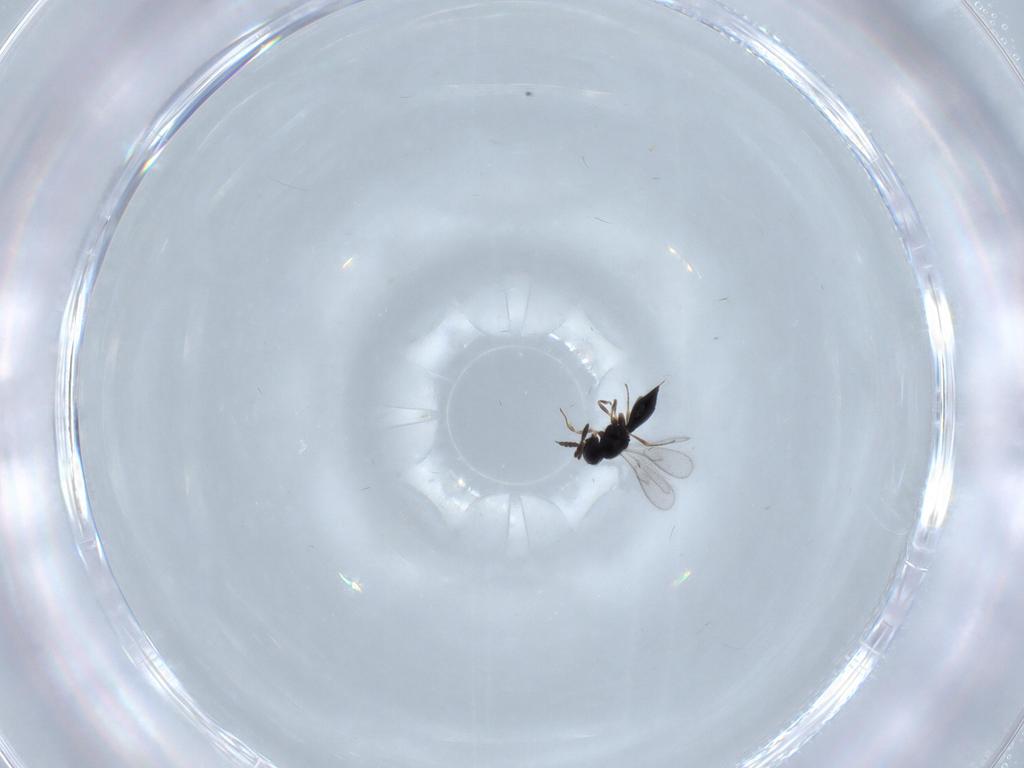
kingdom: Animalia
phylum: Arthropoda
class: Insecta
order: Hymenoptera
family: Scelionidae
